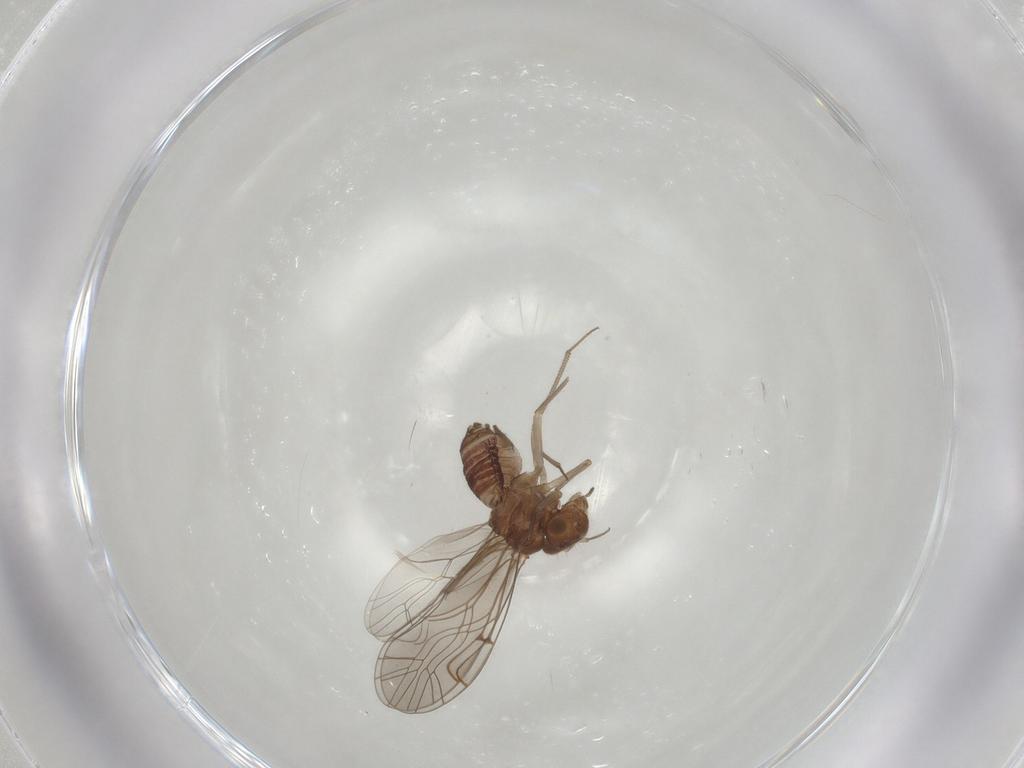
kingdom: Animalia
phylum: Arthropoda
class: Insecta
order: Psocodea
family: Lachesillidae
